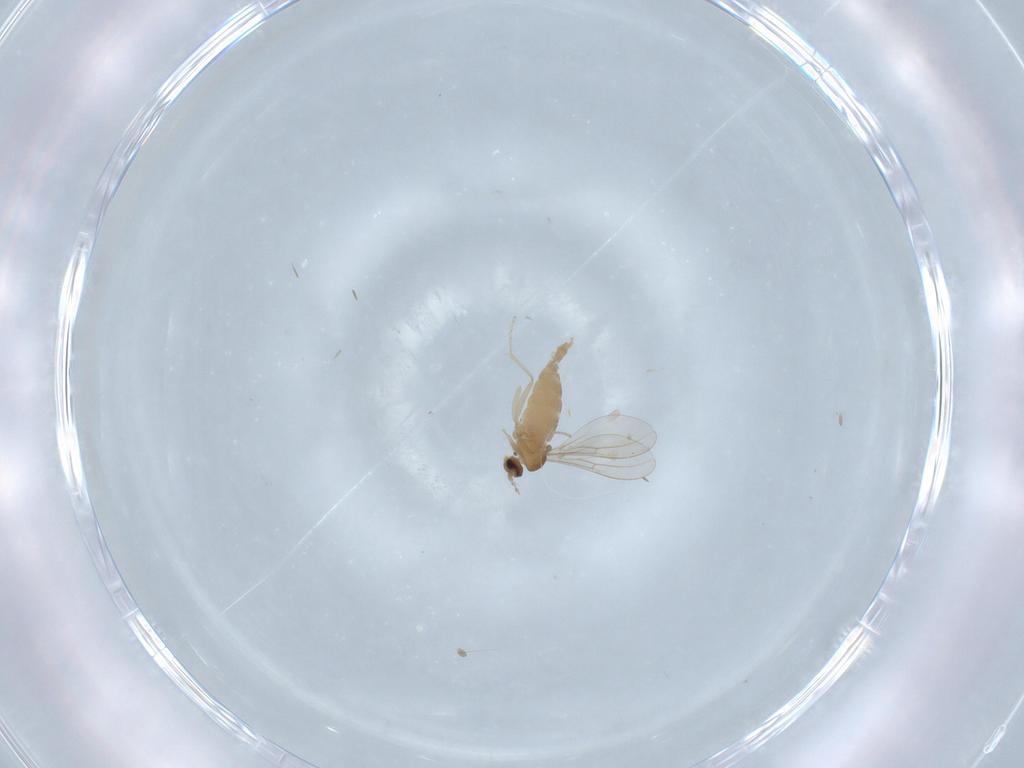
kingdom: Animalia
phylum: Arthropoda
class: Insecta
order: Diptera
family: Cecidomyiidae
